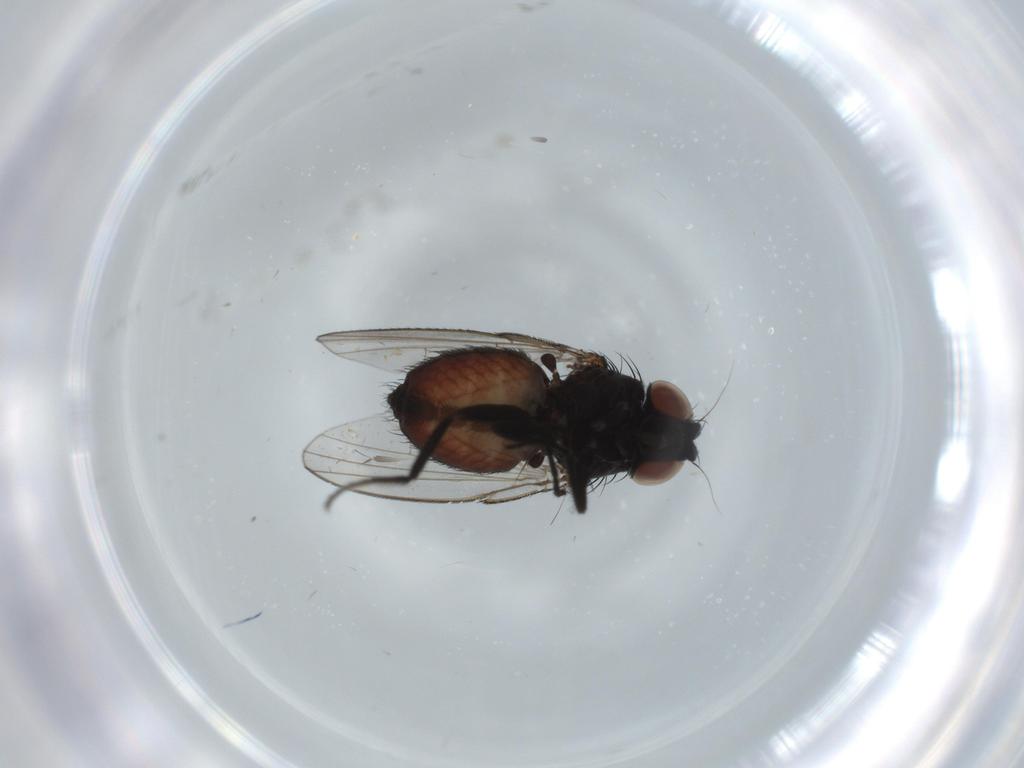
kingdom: Animalia
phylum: Arthropoda
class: Insecta
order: Diptera
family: Milichiidae
